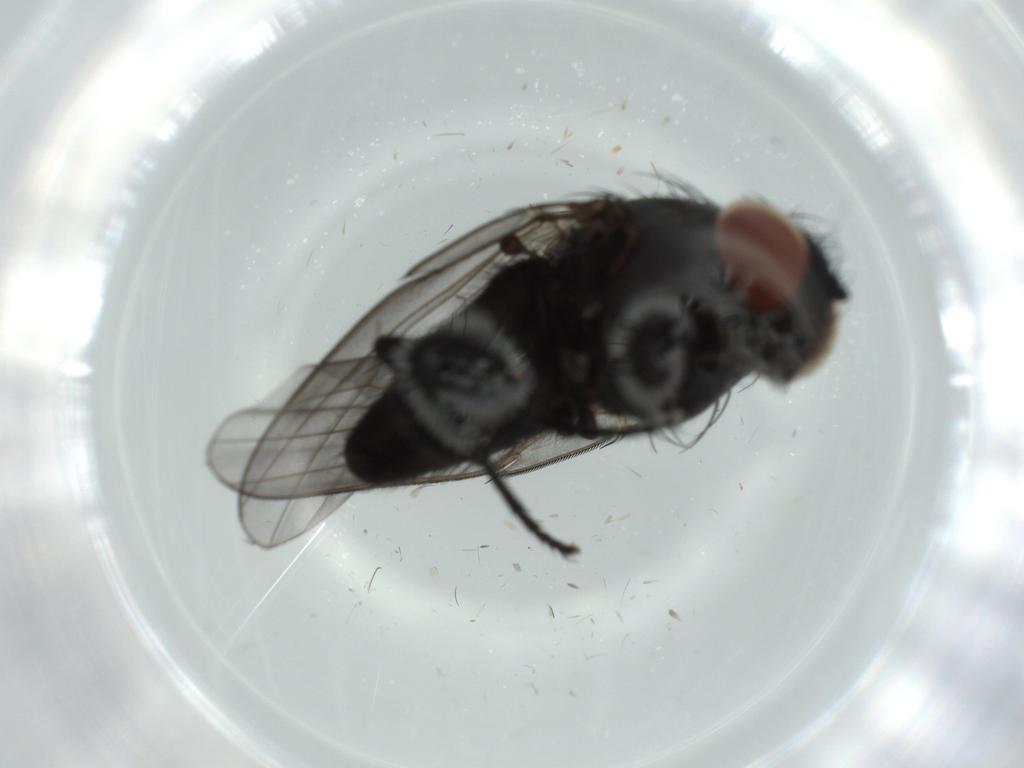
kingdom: Animalia
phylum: Arthropoda
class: Insecta
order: Diptera
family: Milichiidae
